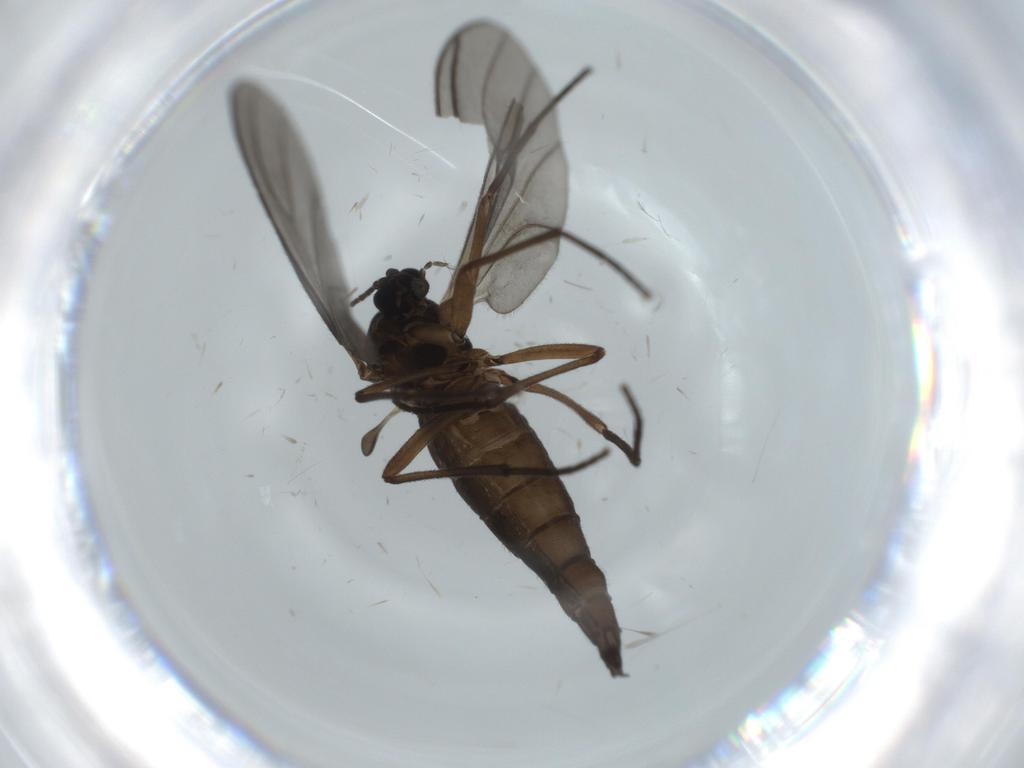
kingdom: Animalia
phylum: Arthropoda
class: Insecta
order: Diptera
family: Sciaridae
